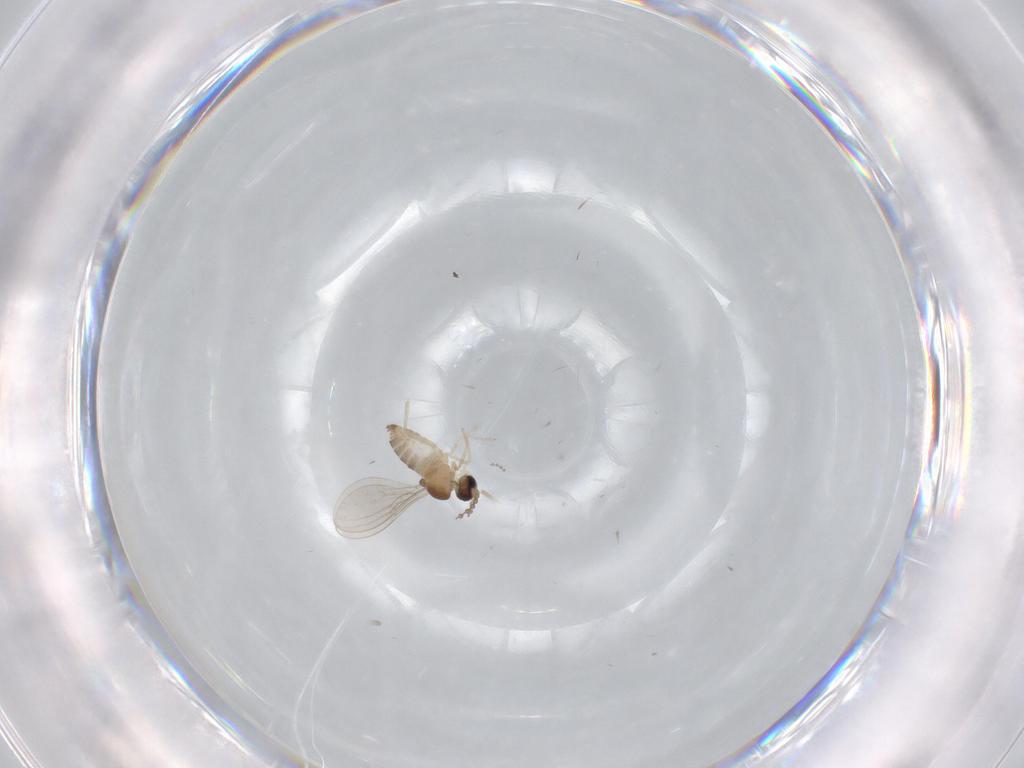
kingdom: Animalia
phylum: Arthropoda
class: Insecta
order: Diptera
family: Cecidomyiidae
